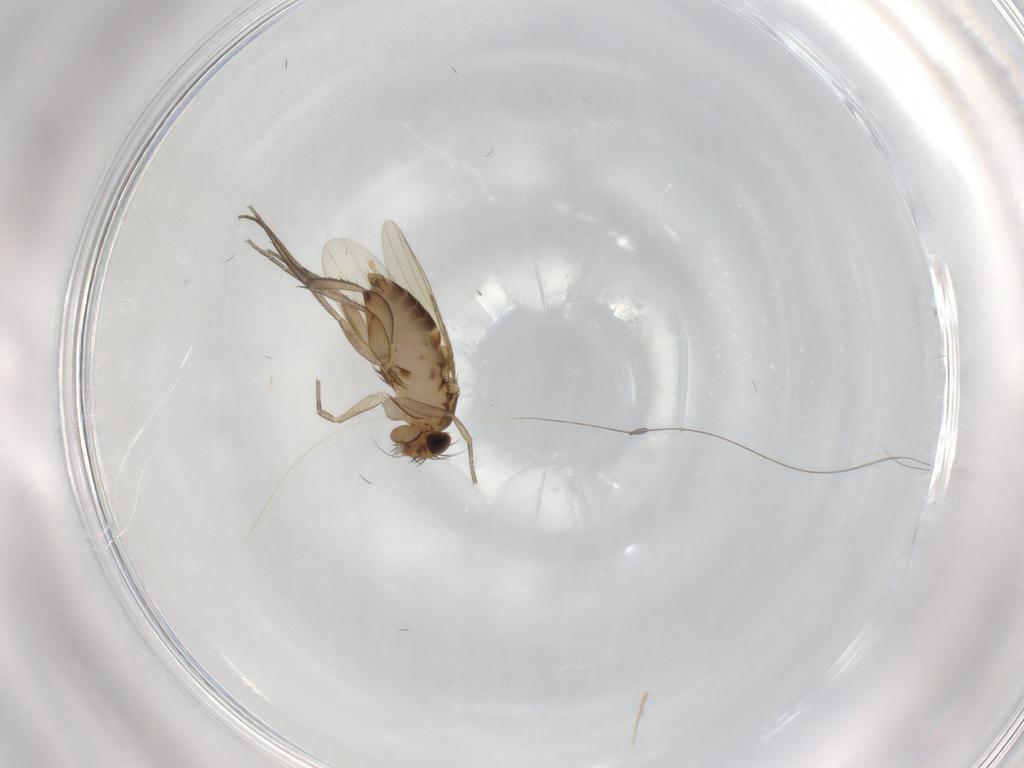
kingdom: Animalia
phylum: Arthropoda
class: Insecta
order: Diptera
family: Phoridae
